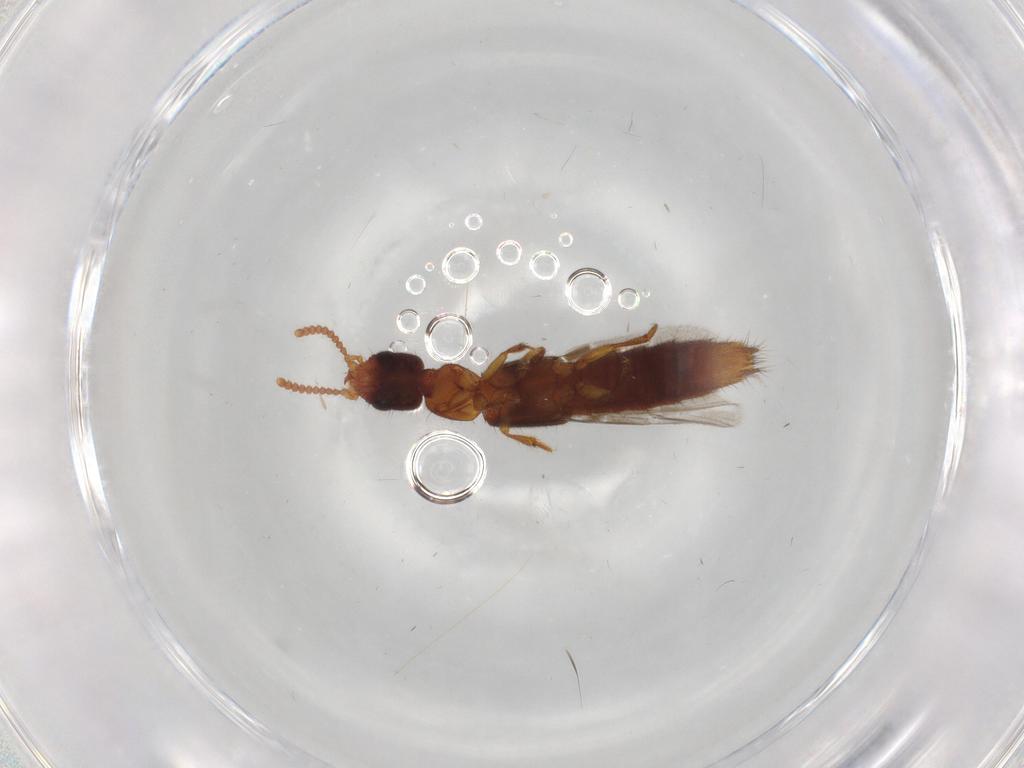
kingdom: Animalia
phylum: Arthropoda
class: Insecta
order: Coleoptera
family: Staphylinidae
